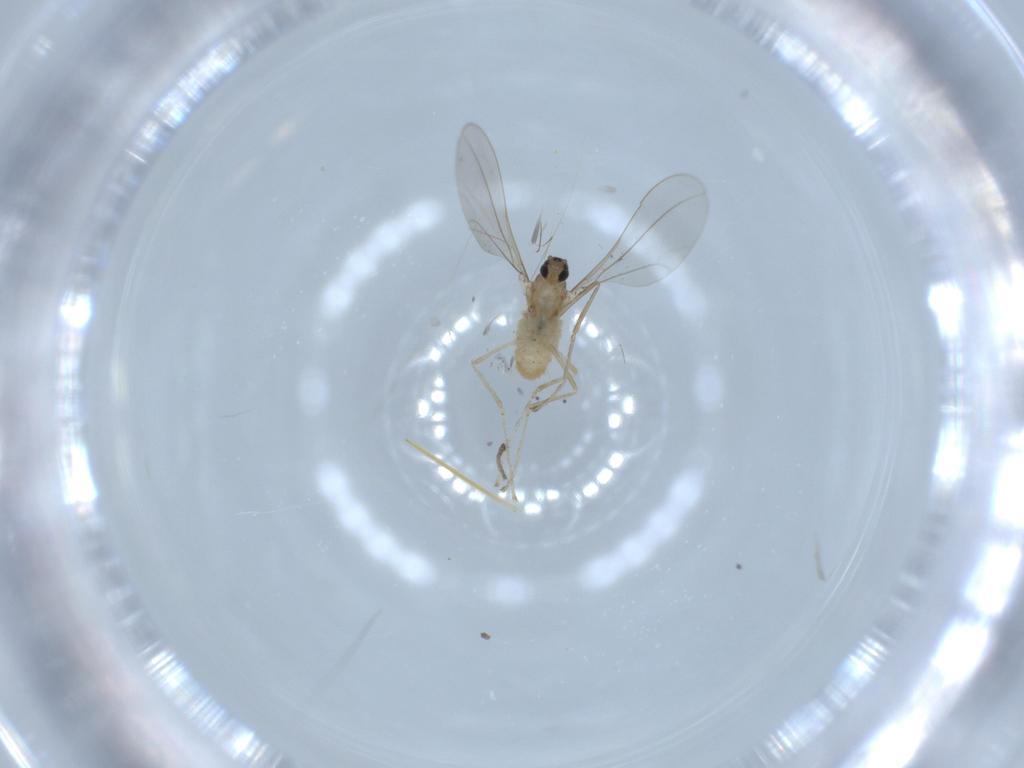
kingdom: Animalia
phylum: Arthropoda
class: Insecta
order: Diptera
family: Cecidomyiidae
